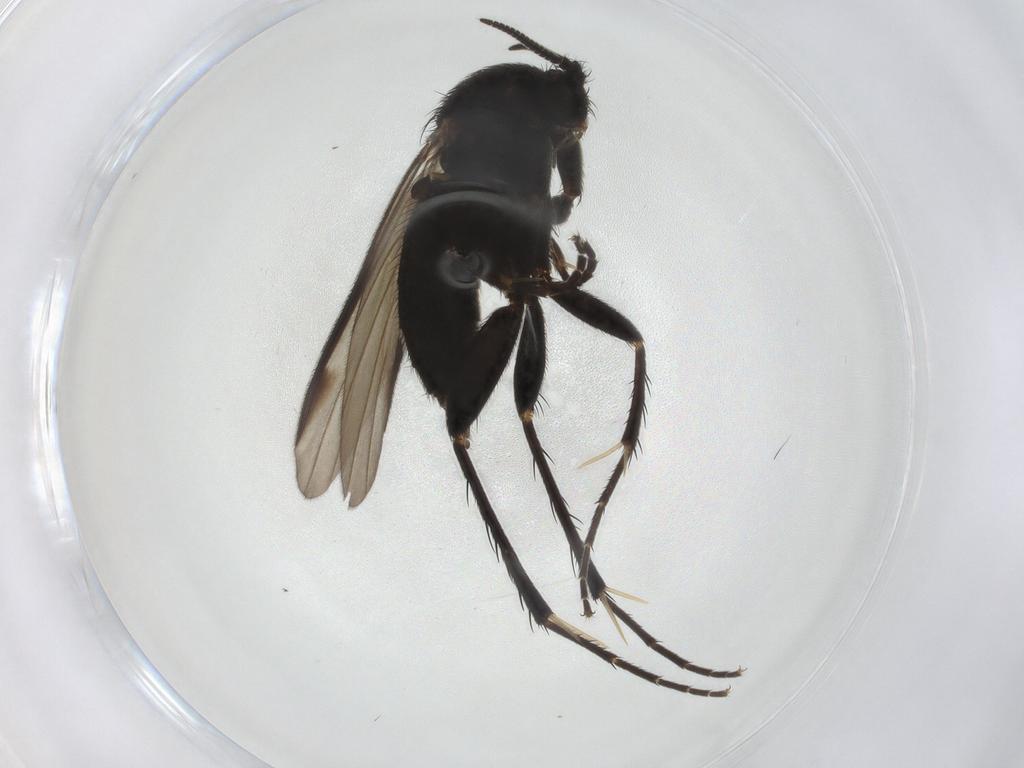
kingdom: Animalia
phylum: Arthropoda
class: Insecta
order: Diptera
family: Mycetophilidae
